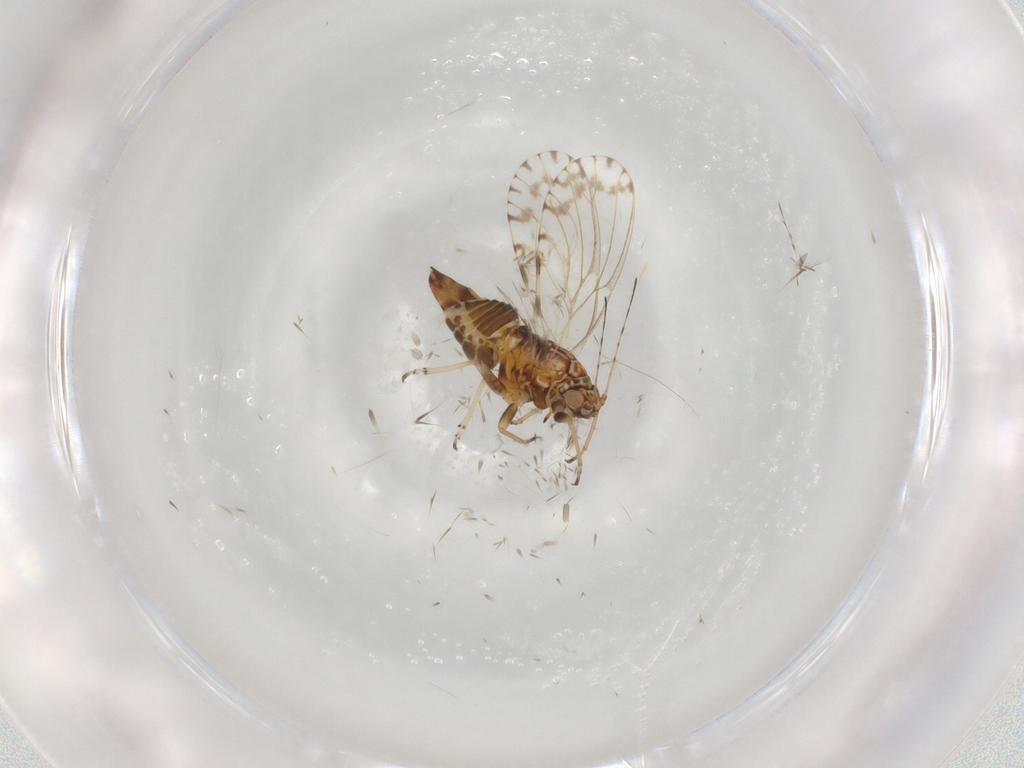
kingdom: Animalia
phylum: Arthropoda
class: Insecta
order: Hemiptera
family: Psyllidae
